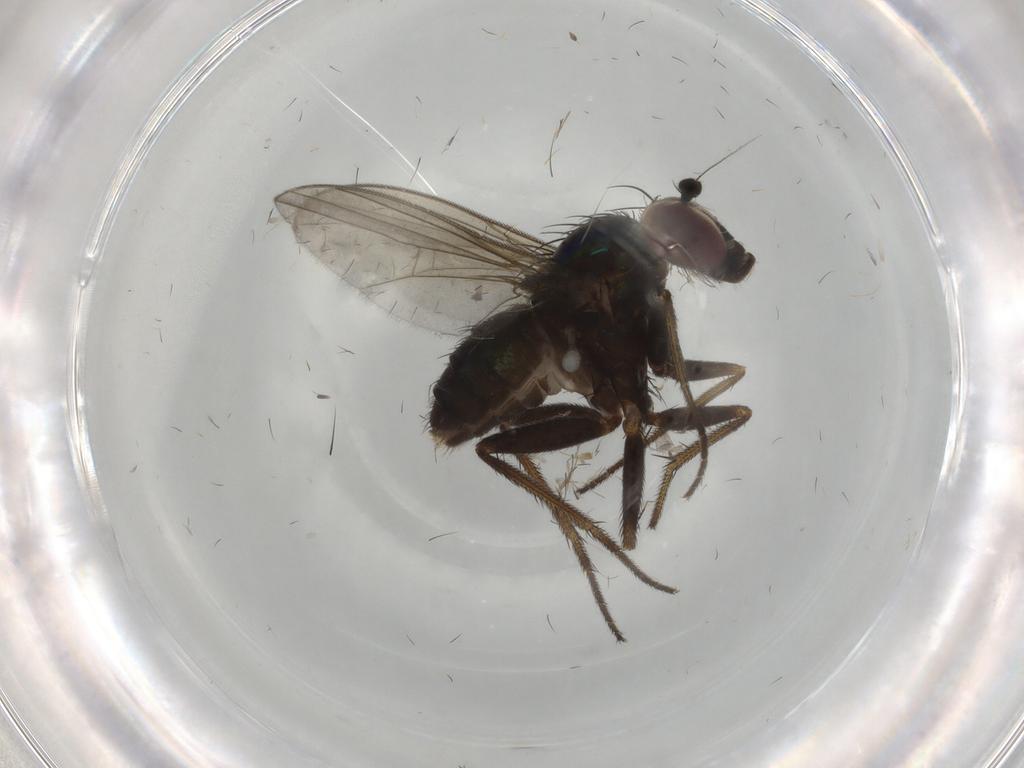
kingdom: Animalia
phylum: Arthropoda
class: Insecta
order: Diptera
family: Dolichopodidae
